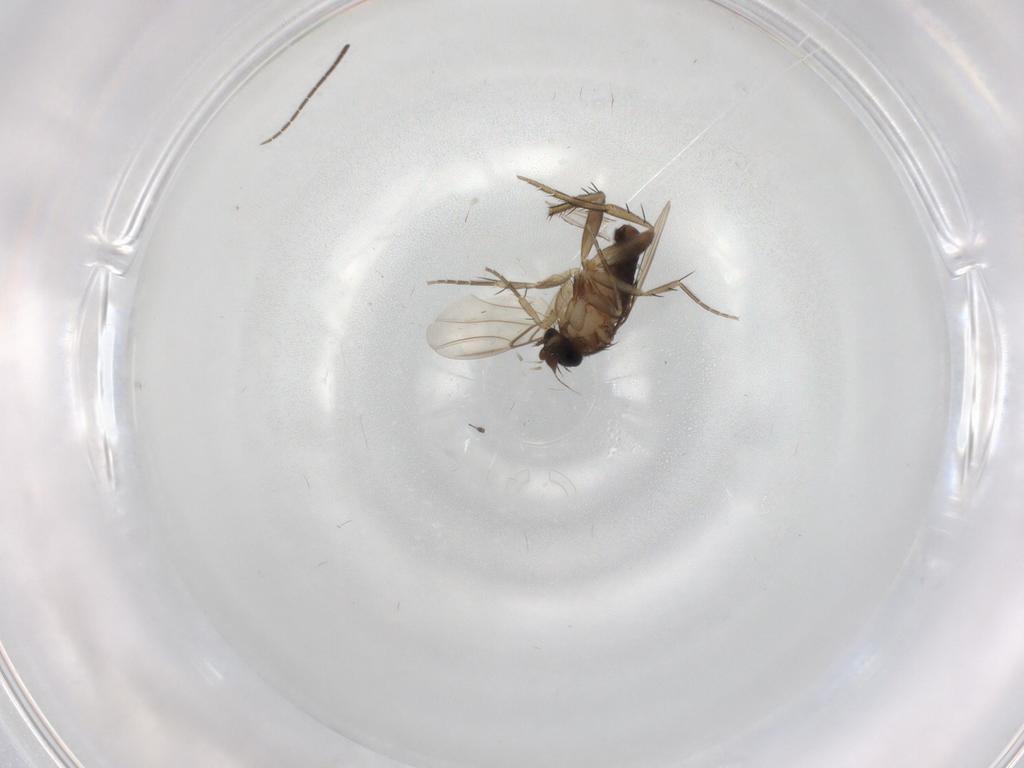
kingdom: Animalia
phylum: Arthropoda
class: Insecta
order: Diptera
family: Phoridae
